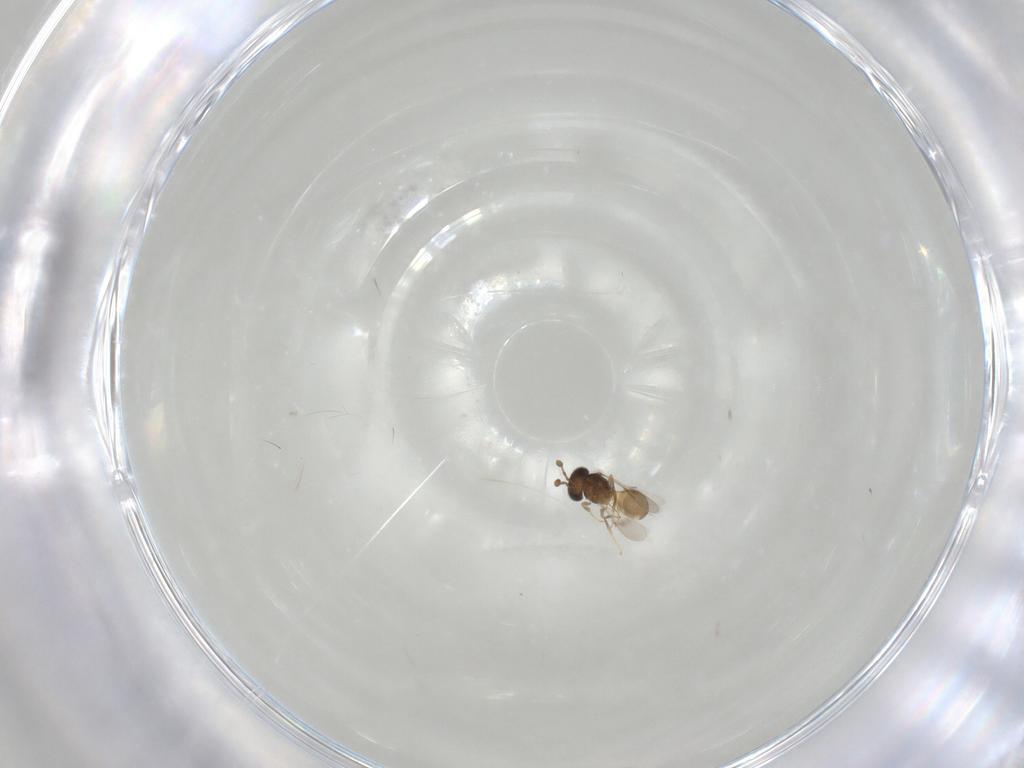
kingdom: Animalia
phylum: Arthropoda
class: Insecta
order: Hymenoptera
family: Scelionidae
